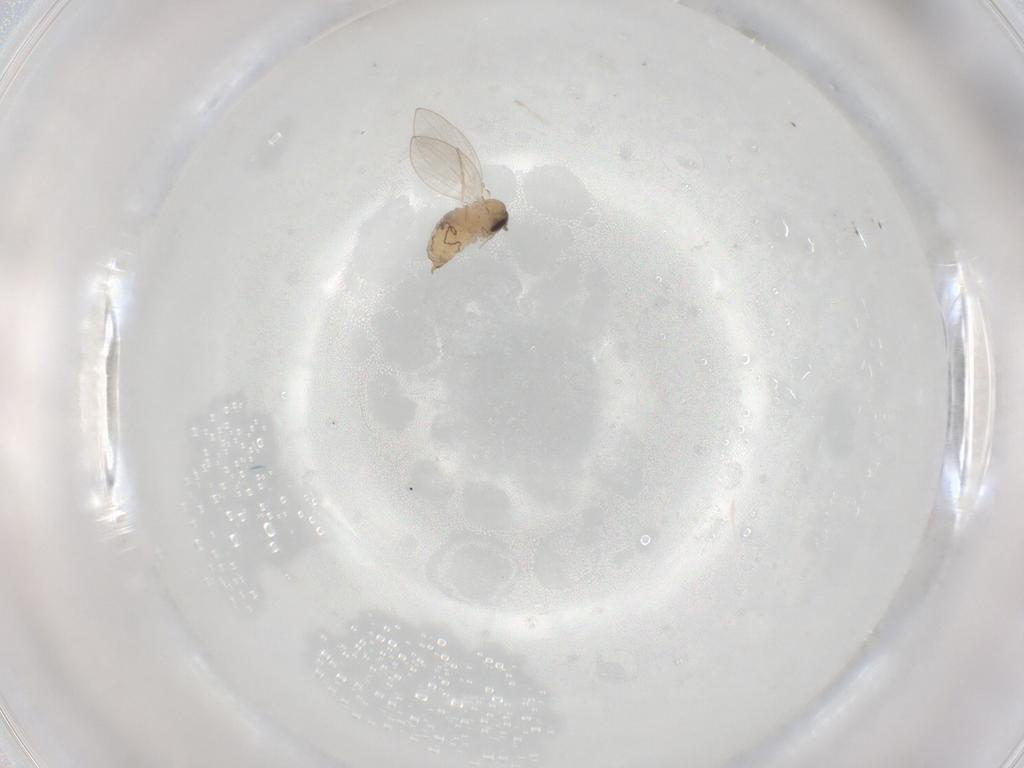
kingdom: Animalia
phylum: Arthropoda
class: Insecta
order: Diptera
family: Psychodidae
